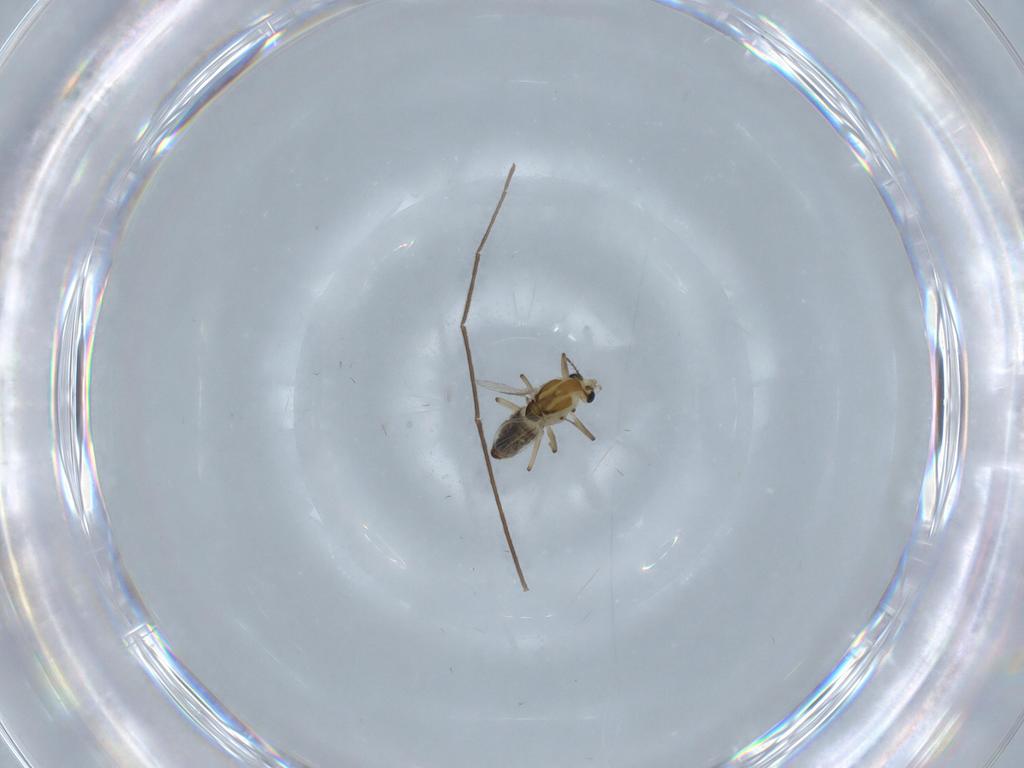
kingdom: Animalia
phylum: Arthropoda
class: Insecta
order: Diptera
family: Chironomidae
